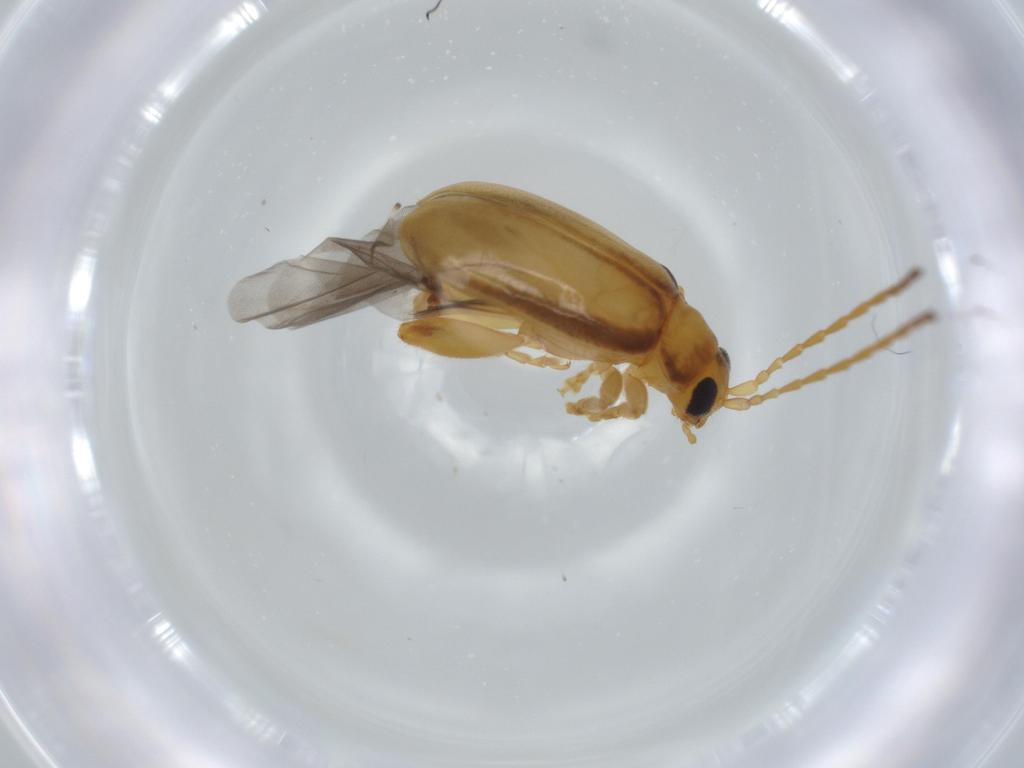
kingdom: Animalia
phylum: Arthropoda
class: Insecta
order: Coleoptera
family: Chrysomelidae
